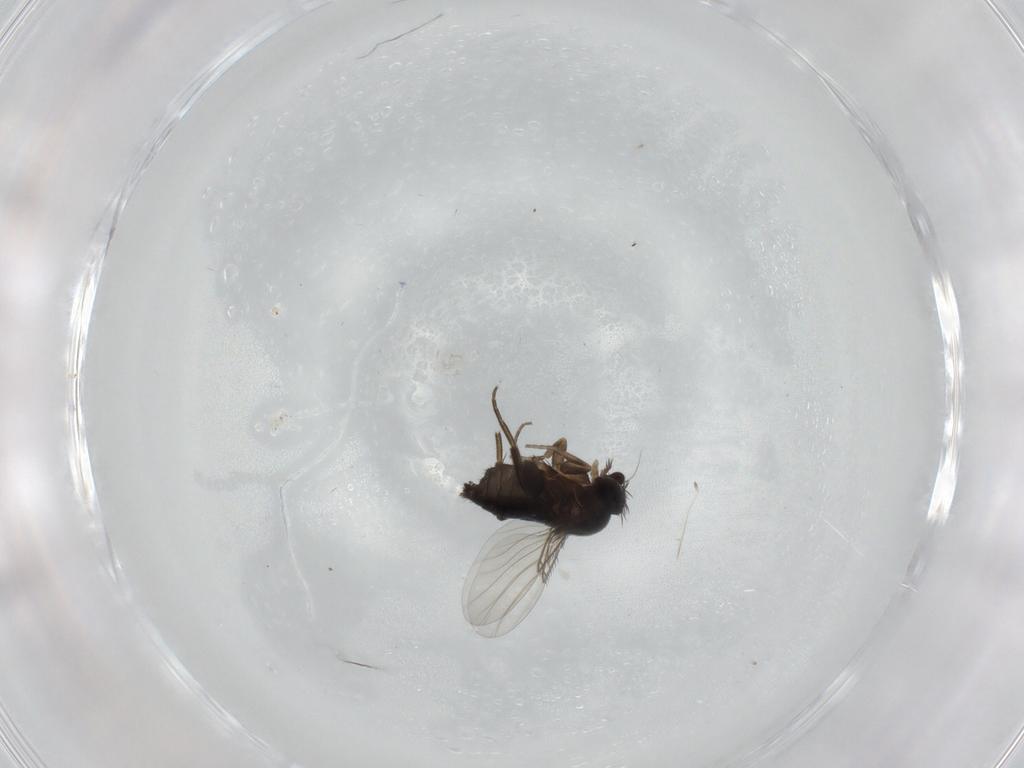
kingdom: Animalia
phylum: Arthropoda
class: Insecta
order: Diptera
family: Phoridae
